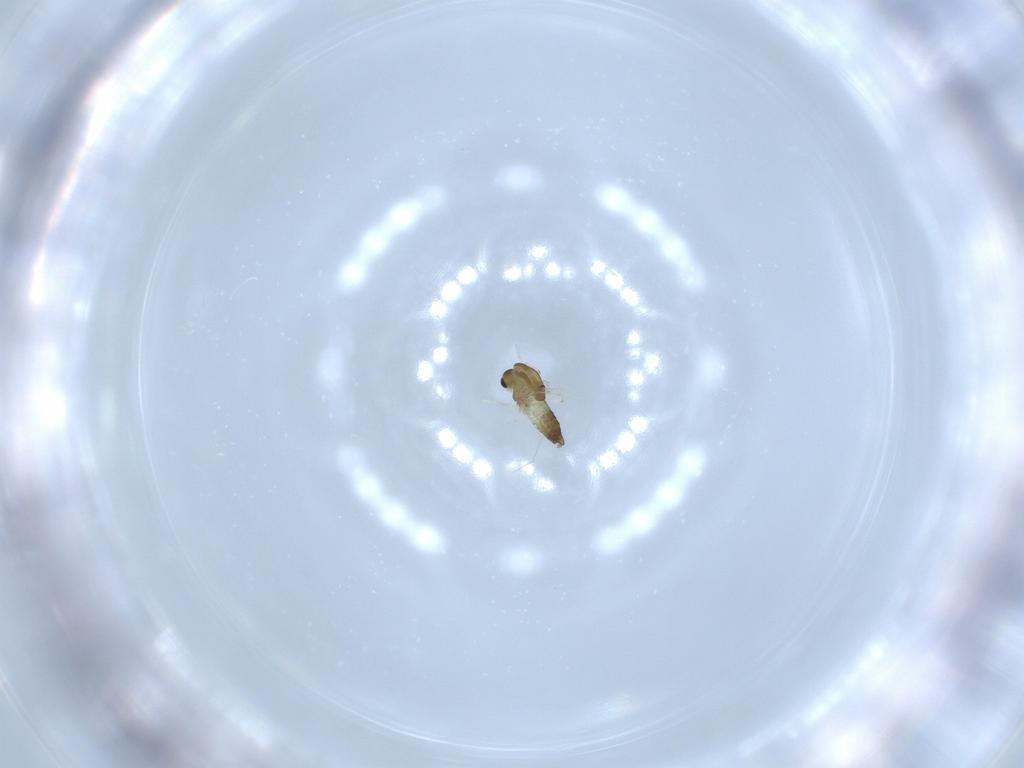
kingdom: Animalia
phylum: Arthropoda
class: Insecta
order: Diptera
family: Chironomidae
